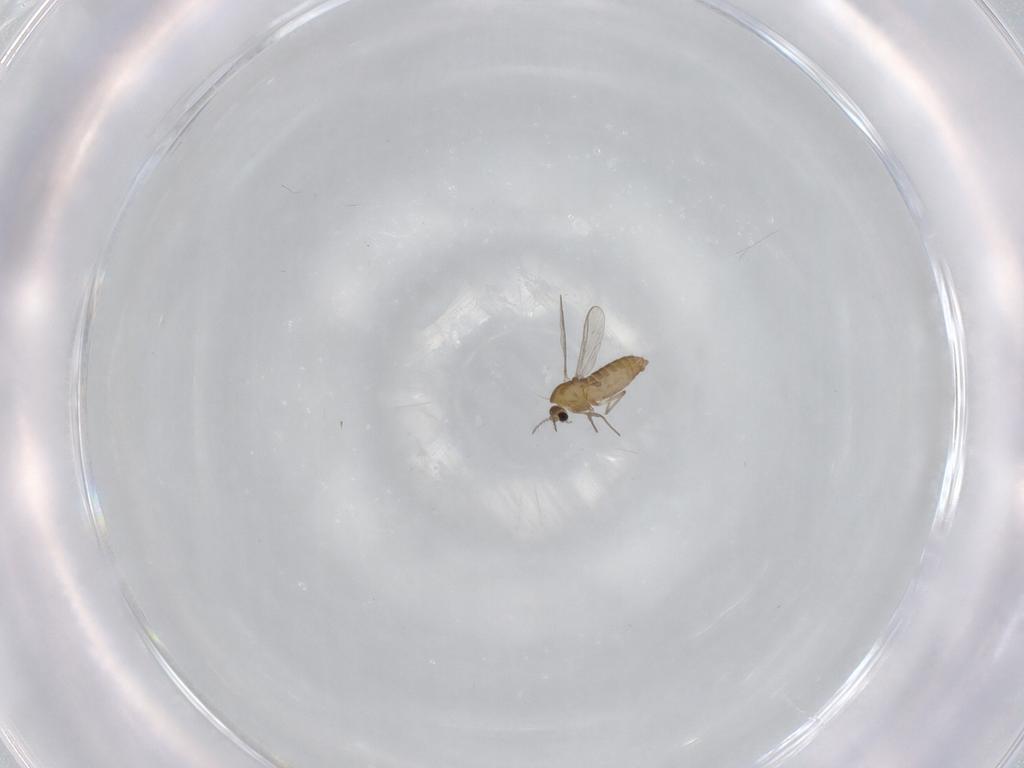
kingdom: Animalia
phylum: Arthropoda
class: Insecta
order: Diptera
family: Chironomidae
